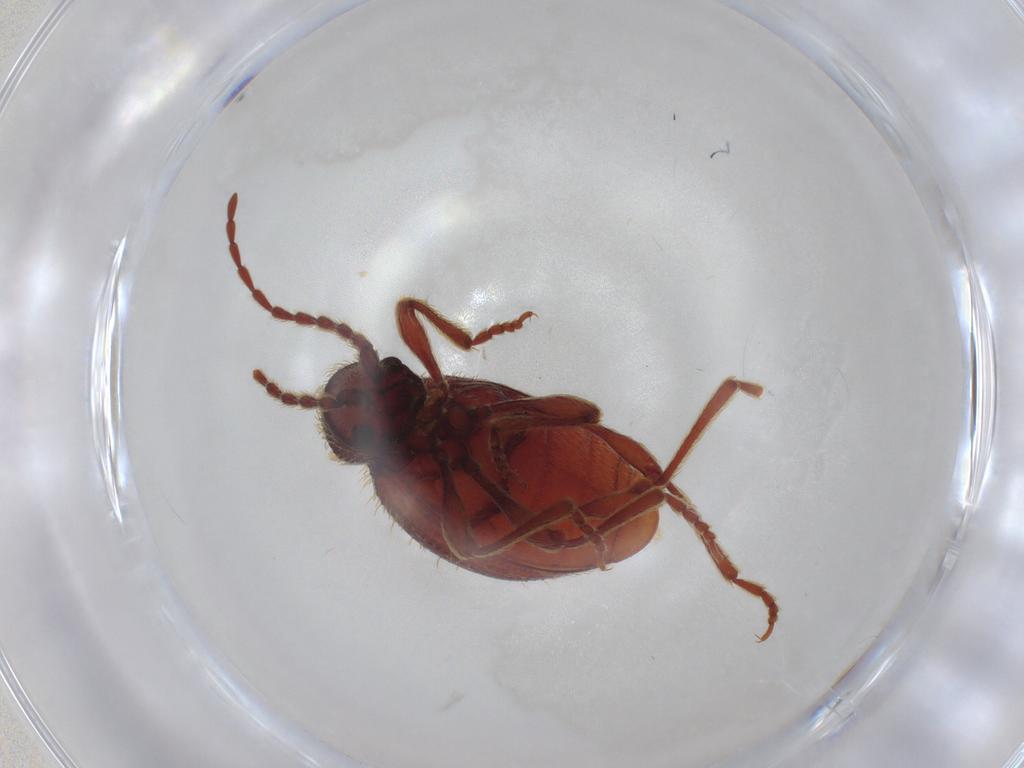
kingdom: Animalia
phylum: Arthropoda
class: Insecta
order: Coleoptera
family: Ptinidae
